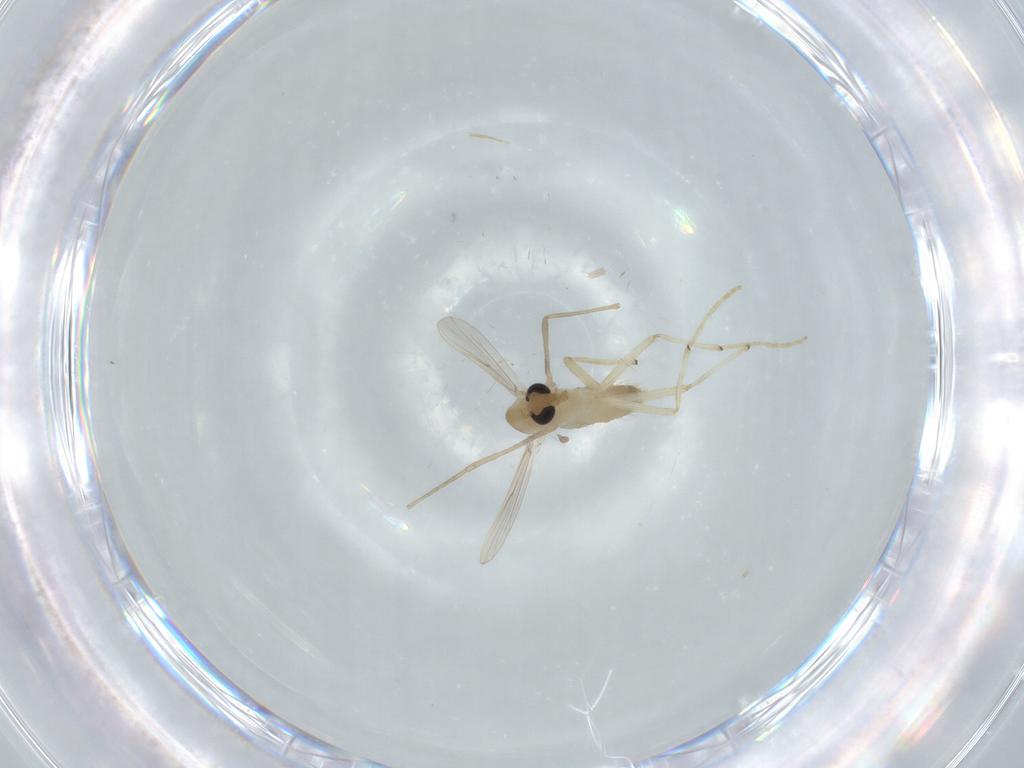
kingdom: Animalia
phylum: Arthropoda
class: Insecta
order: Diptera
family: Chironomidae
